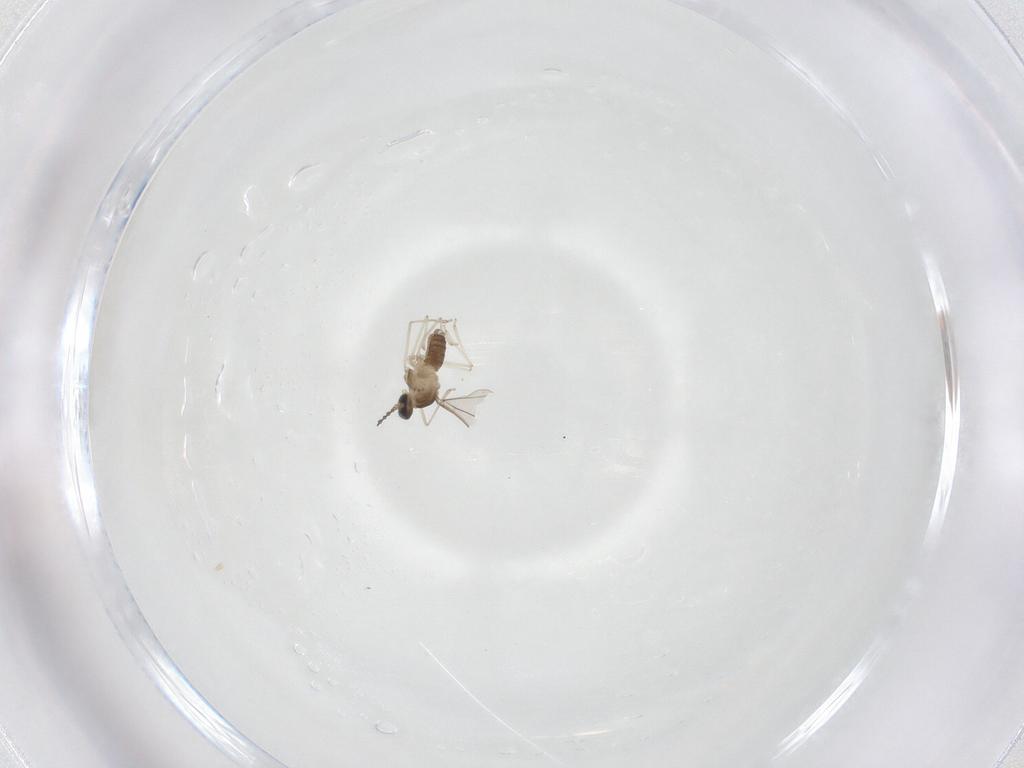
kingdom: Animalia
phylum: Arthropoda
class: Insecta
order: Diptera
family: Cecidomyiidae
